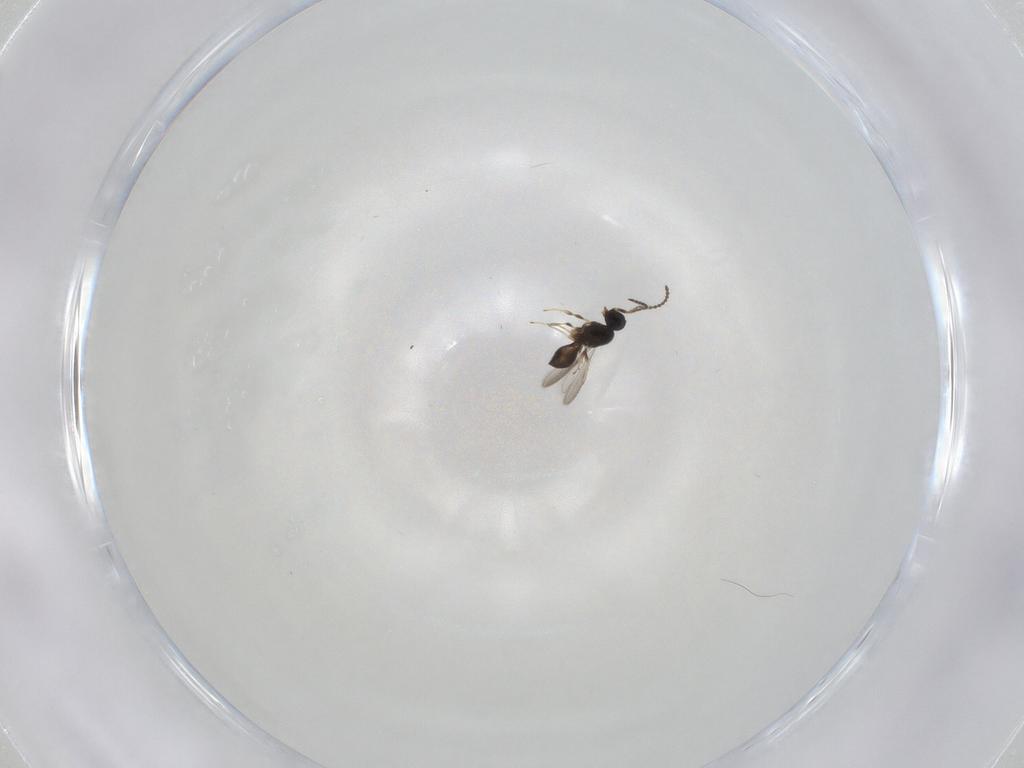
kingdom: Animalia
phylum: Arthropoda
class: Insecta
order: Hymenoptera
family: Scelionidae
